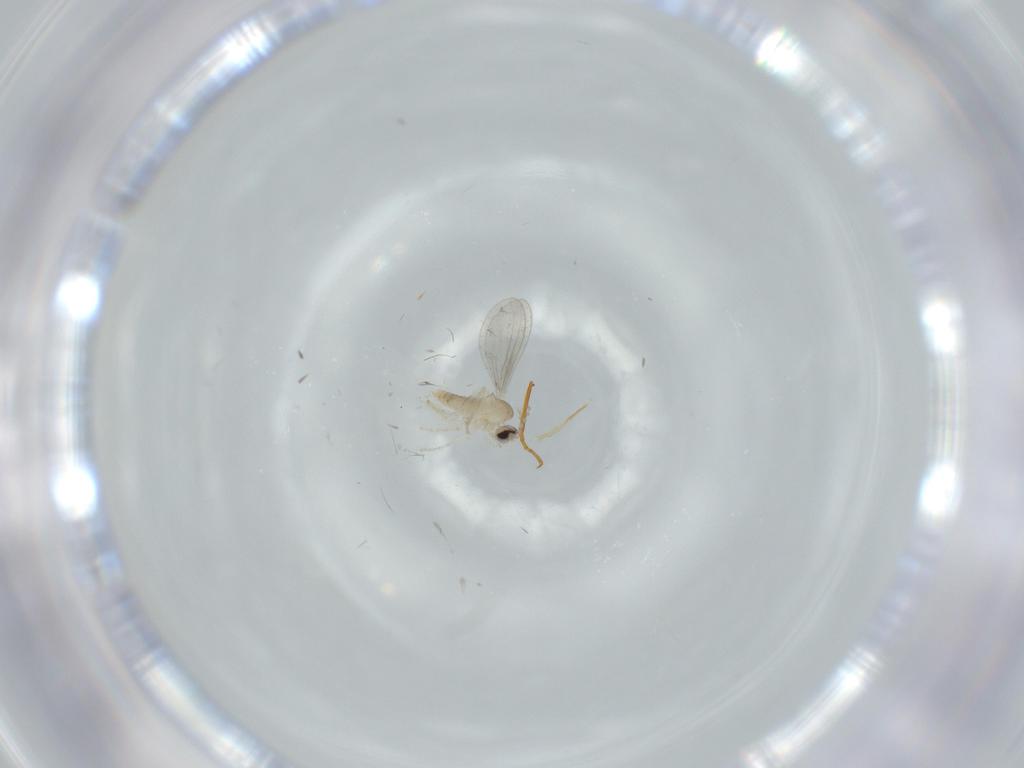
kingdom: Animalia
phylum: Arthropoda
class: Insecta
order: Diptera
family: Cecidomyiidae
